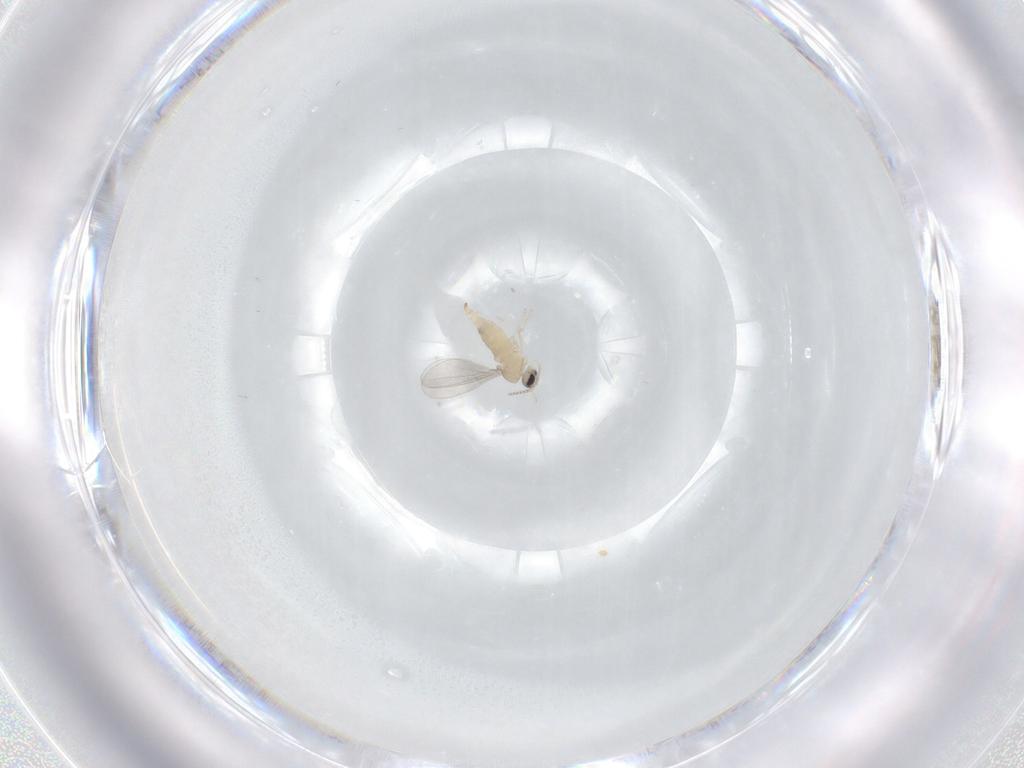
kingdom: Animalia
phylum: Arthropoda
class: Insecta
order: Diptera
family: Cecidomyiidae
